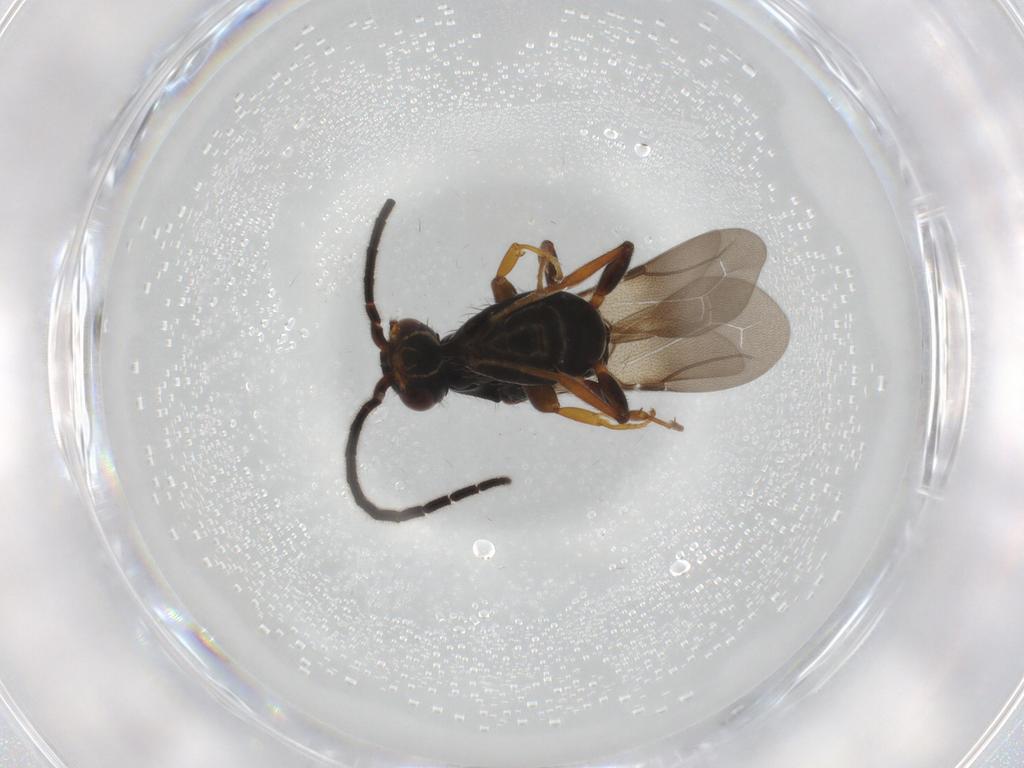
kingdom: Animalia
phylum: Arthropoda
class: Insecta
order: Hymenoptera
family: Bethylidae
